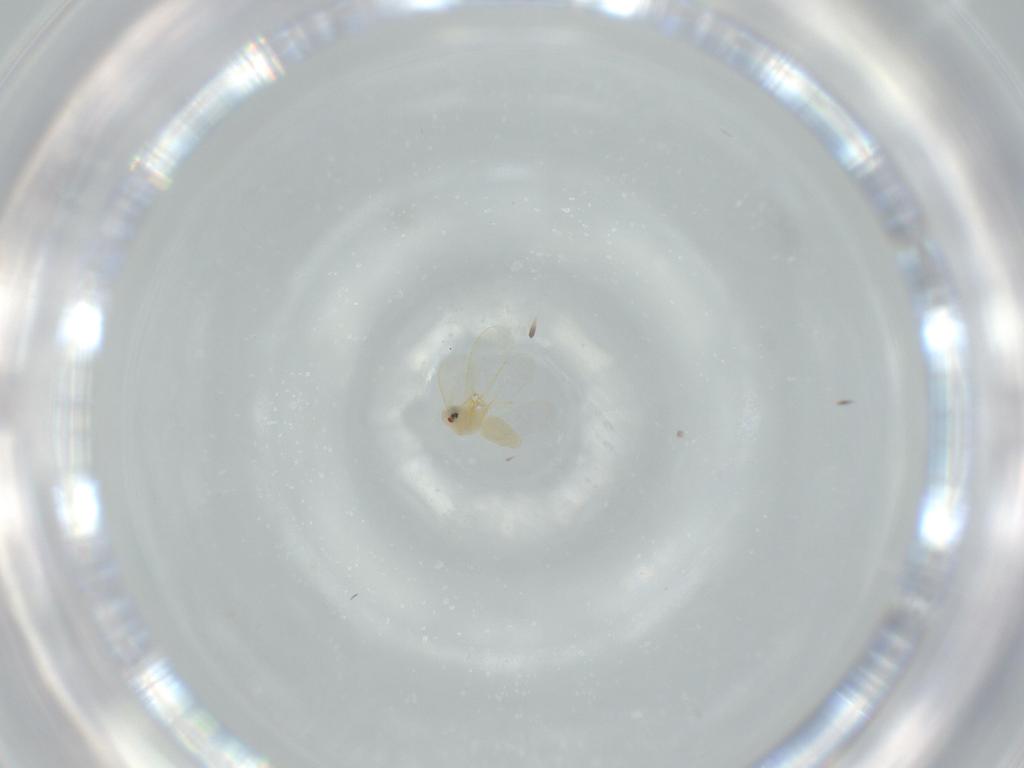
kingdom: Animalia
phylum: Arthropoda
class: Insecta
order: Hemiptera
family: Aleyrodidae
